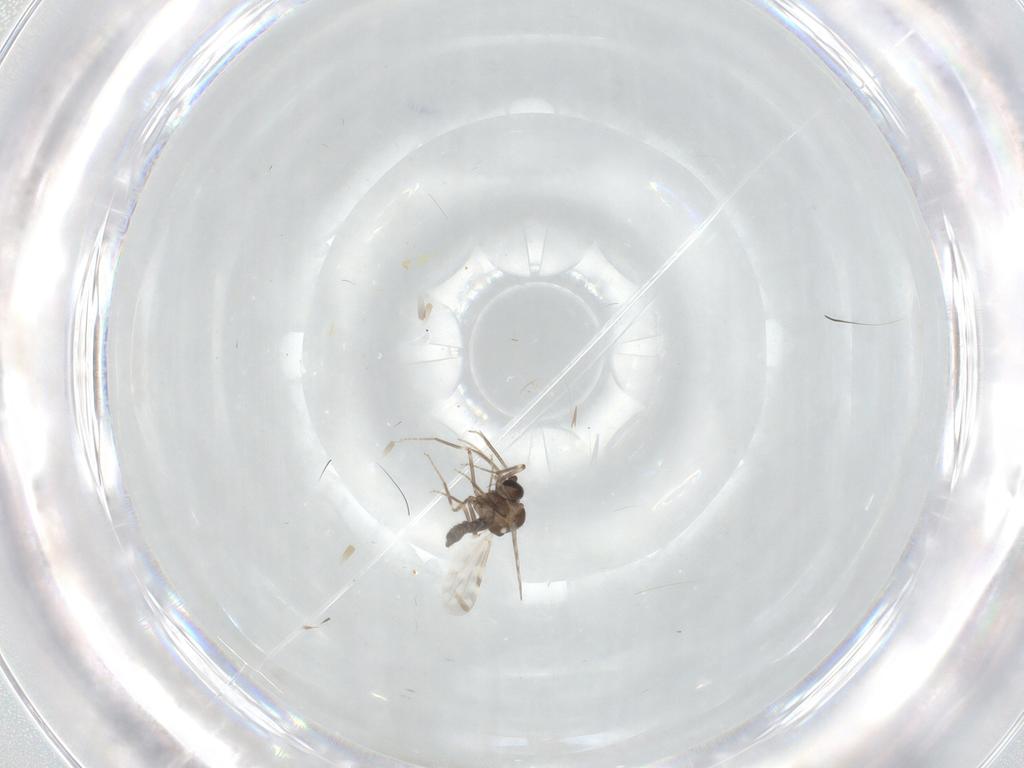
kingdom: Animalia
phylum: Arthropoda
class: Insecta
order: Diptera
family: Ceratopogonidae
